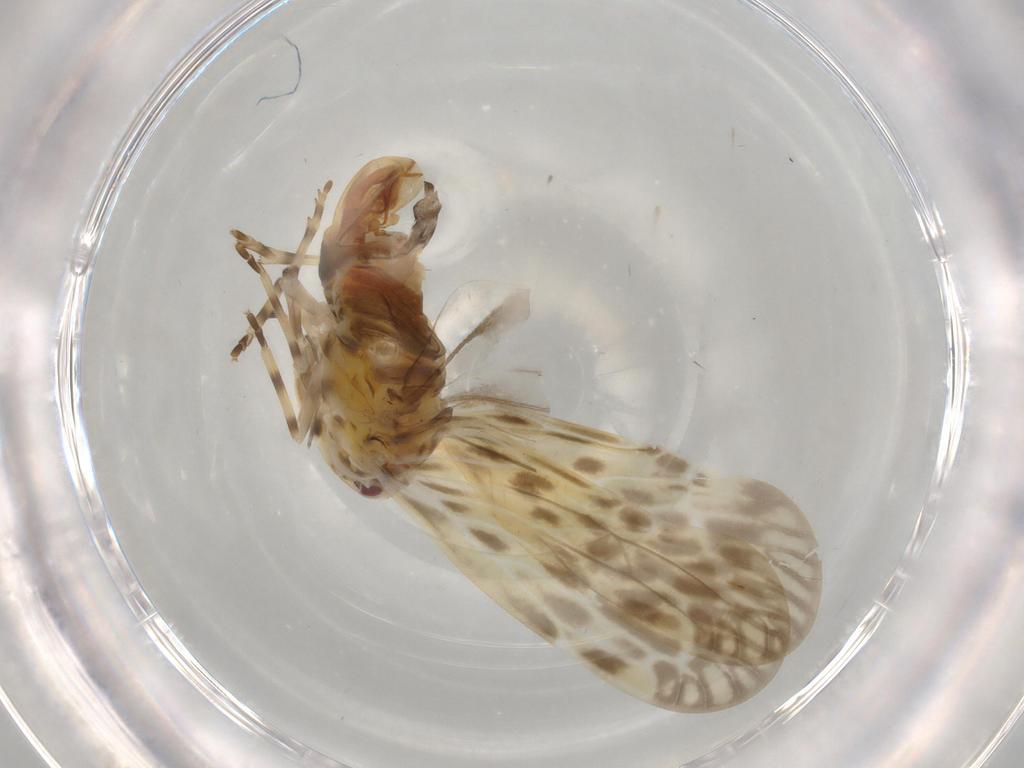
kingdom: Animalia
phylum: Arthropoda
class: Insecta
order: Hemiptera
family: Derbidae
